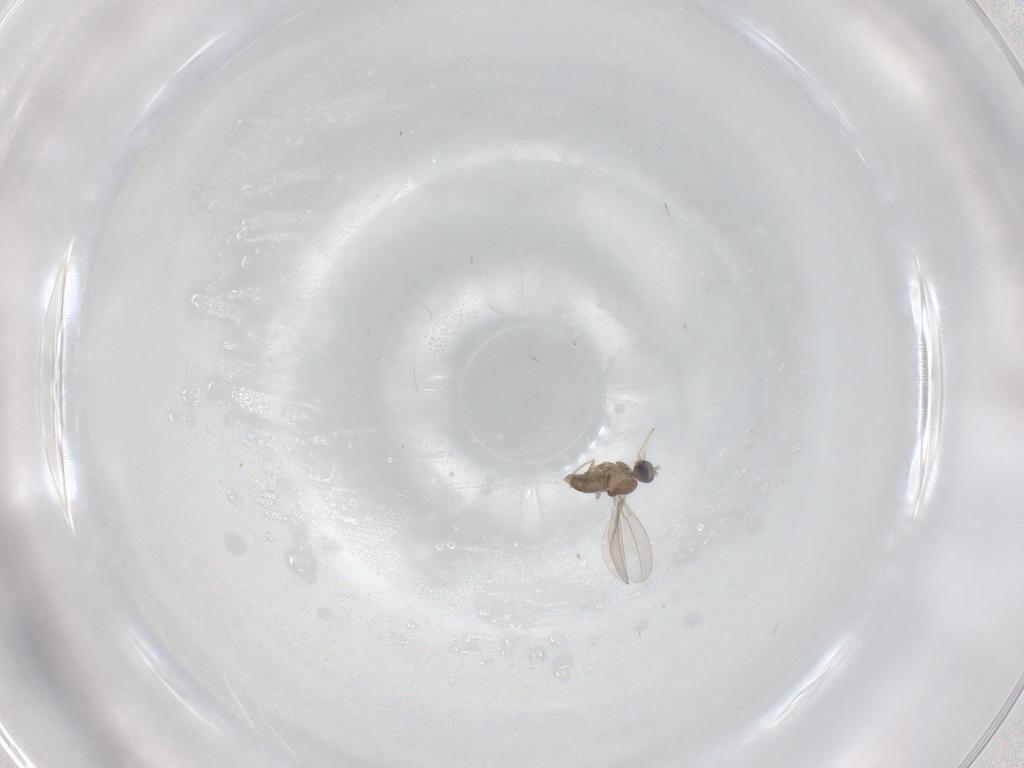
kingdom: Animalia
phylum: Arthropoda
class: Insecta
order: Diptera
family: Cecidomyiidae
